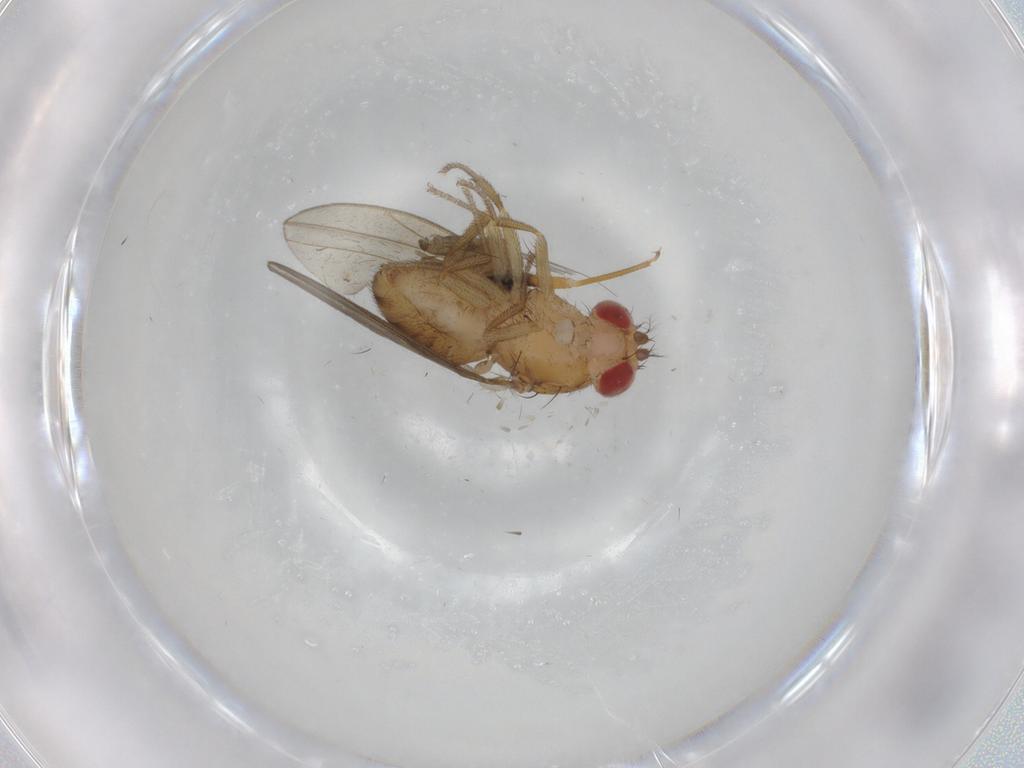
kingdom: Animalia
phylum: Arthropoda
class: Insecta
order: Diptera
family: Drosophilidae
